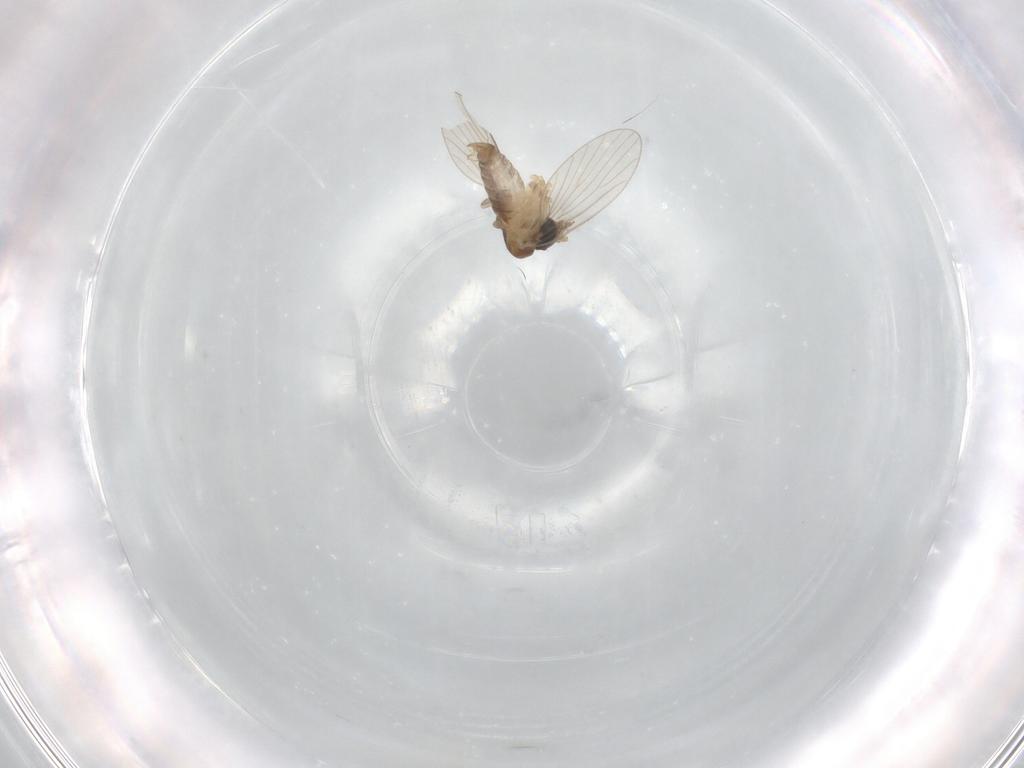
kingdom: Animalia
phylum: Arthropoda
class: Insecta
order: Diptera
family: Psychodidae
